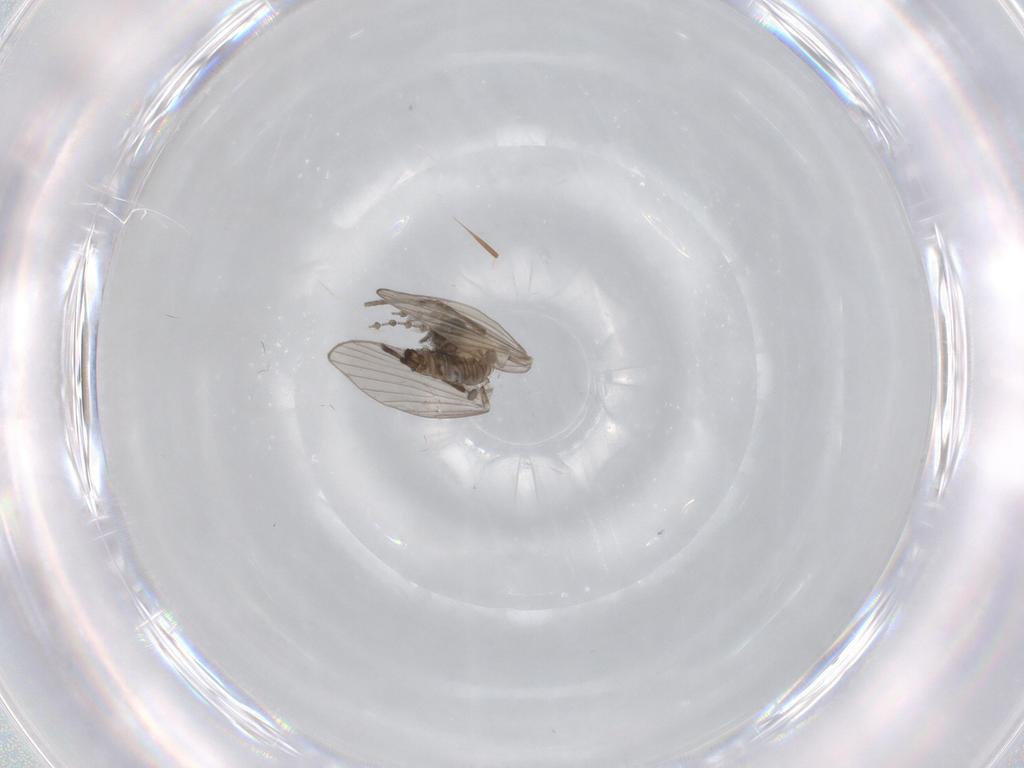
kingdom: Animalia
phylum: Arthropoda
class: Insecta
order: Diptera
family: Psychodidae
